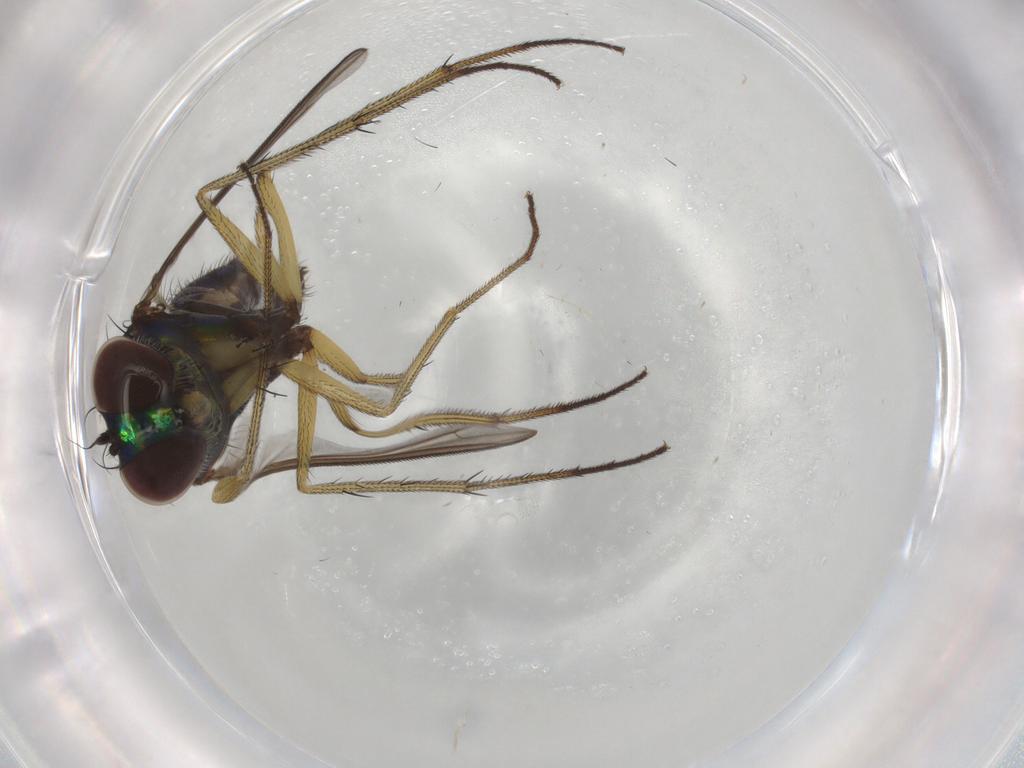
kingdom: Animalia
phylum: Arthropoda
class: Insecta
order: Diptera
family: Dolichopodidae
